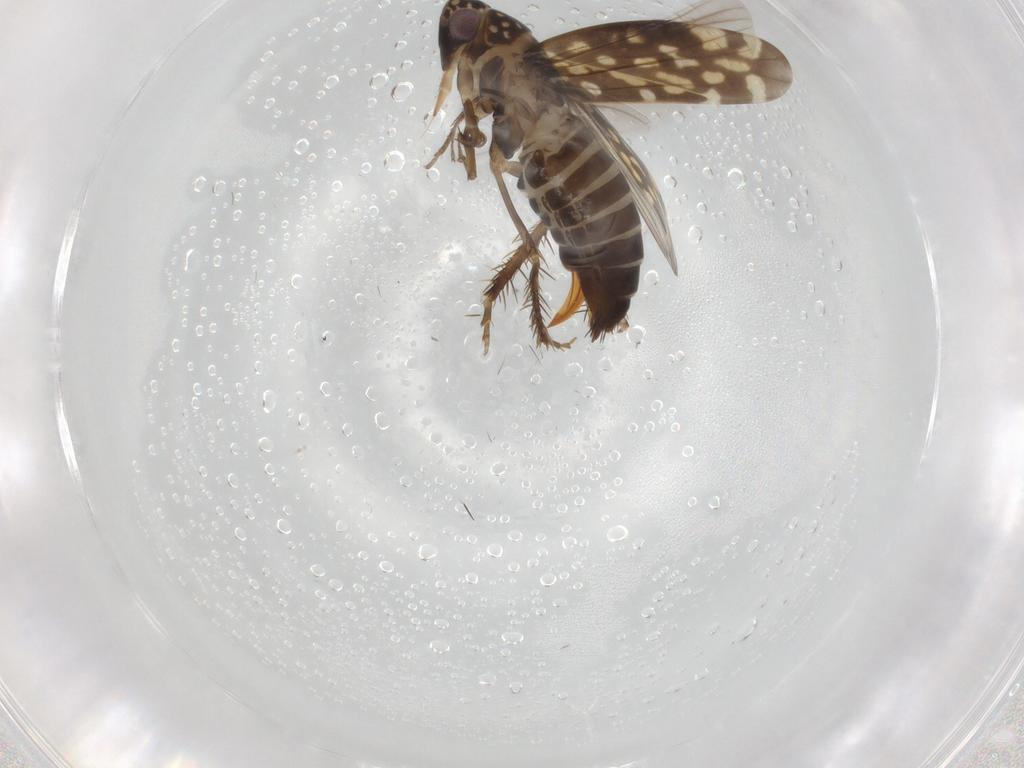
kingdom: Animalia
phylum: Arthropoda
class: Insecta
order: Hemiptera
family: Cicadellidae
